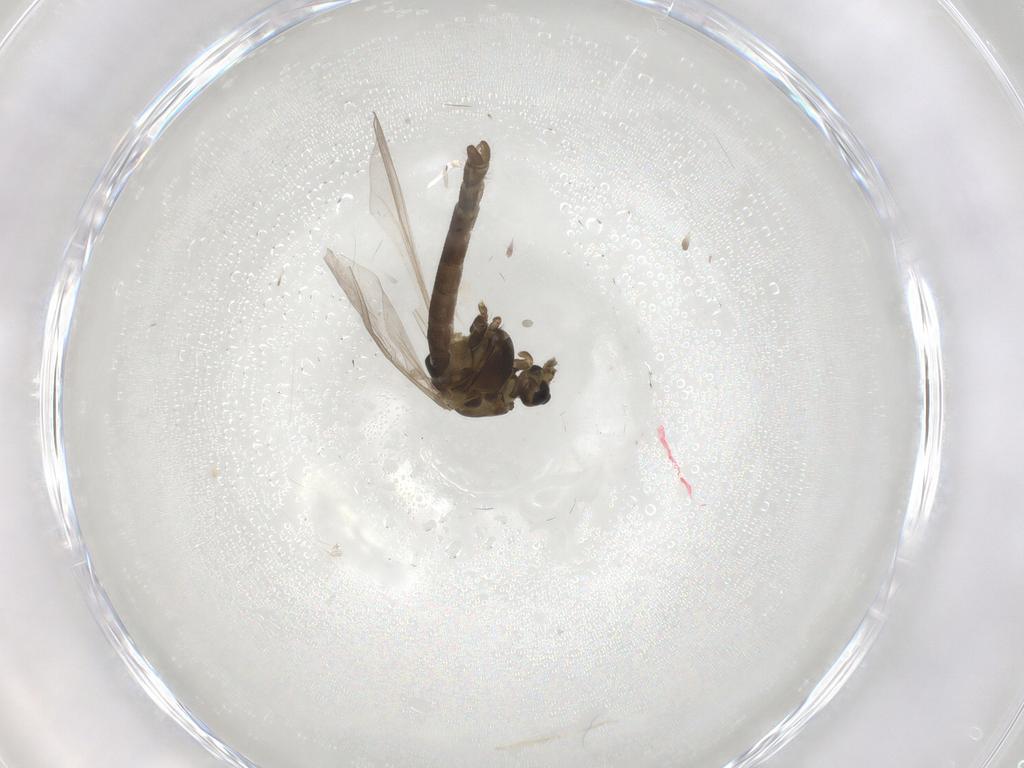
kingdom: Animalia
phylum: Arthropoda
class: Insecta
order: Diptera
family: Chironomidae
